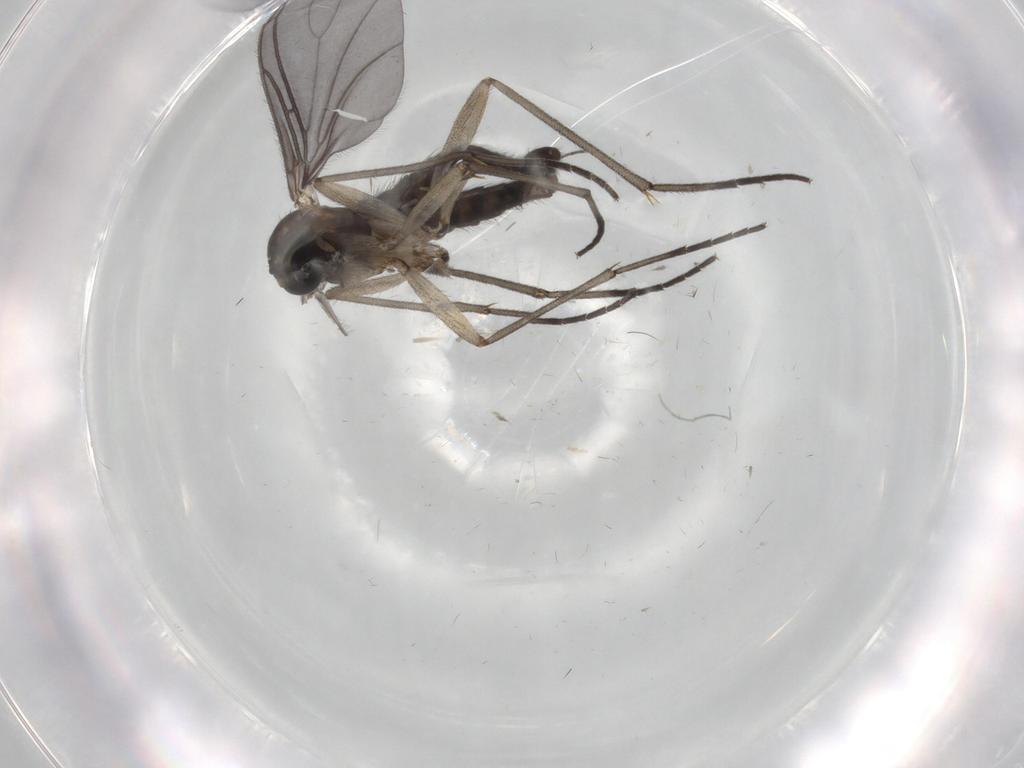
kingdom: Animalia
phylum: Arthropoda
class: Insecta
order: Diptera
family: Sciaridae
